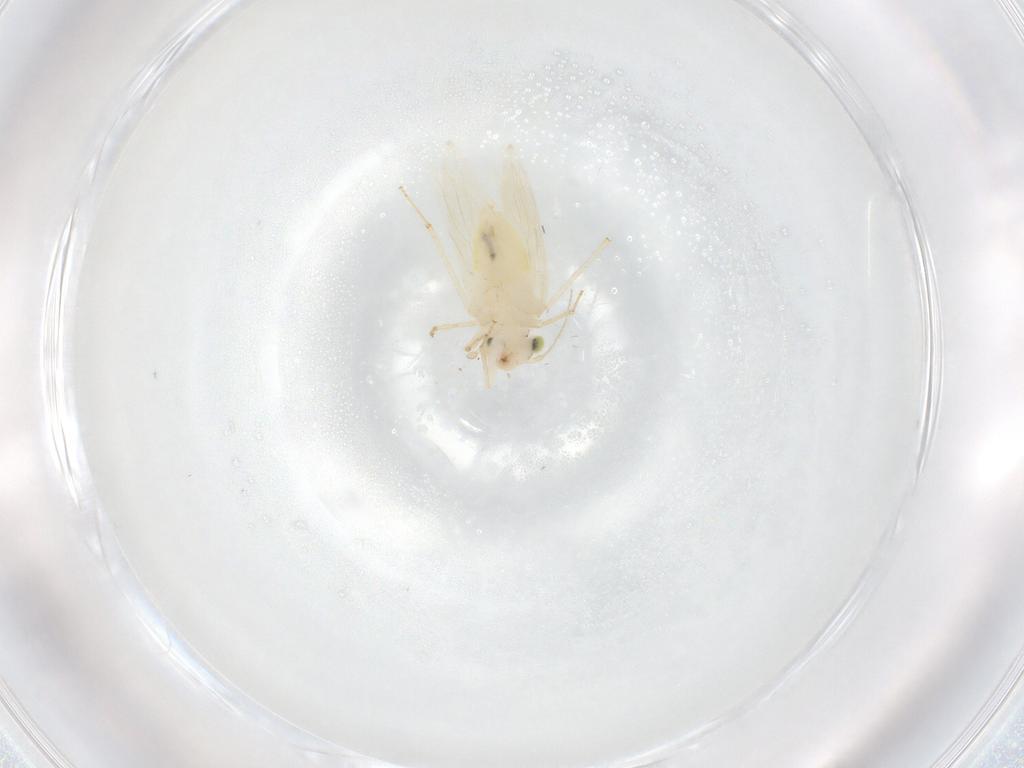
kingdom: Animalia
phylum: Arthropoda
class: Insecta
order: Psocodea
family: Lepidopsocidae
